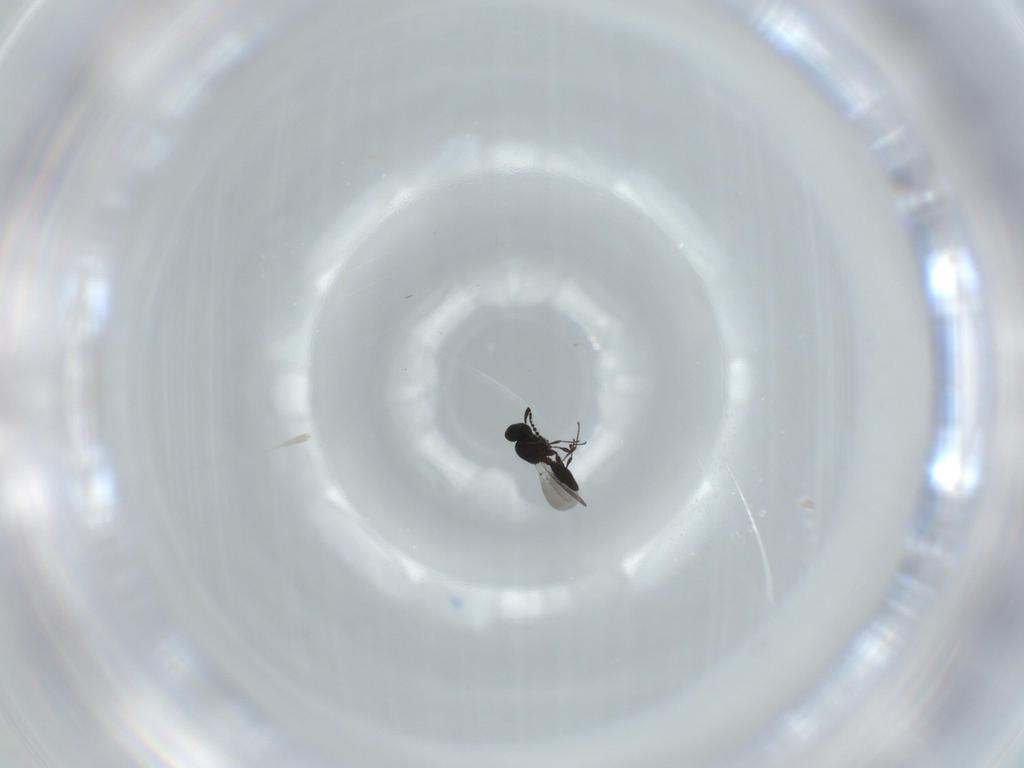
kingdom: Animalia
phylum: Arthropoda
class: Insecta
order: Hymenoptera
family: Platygastridae
